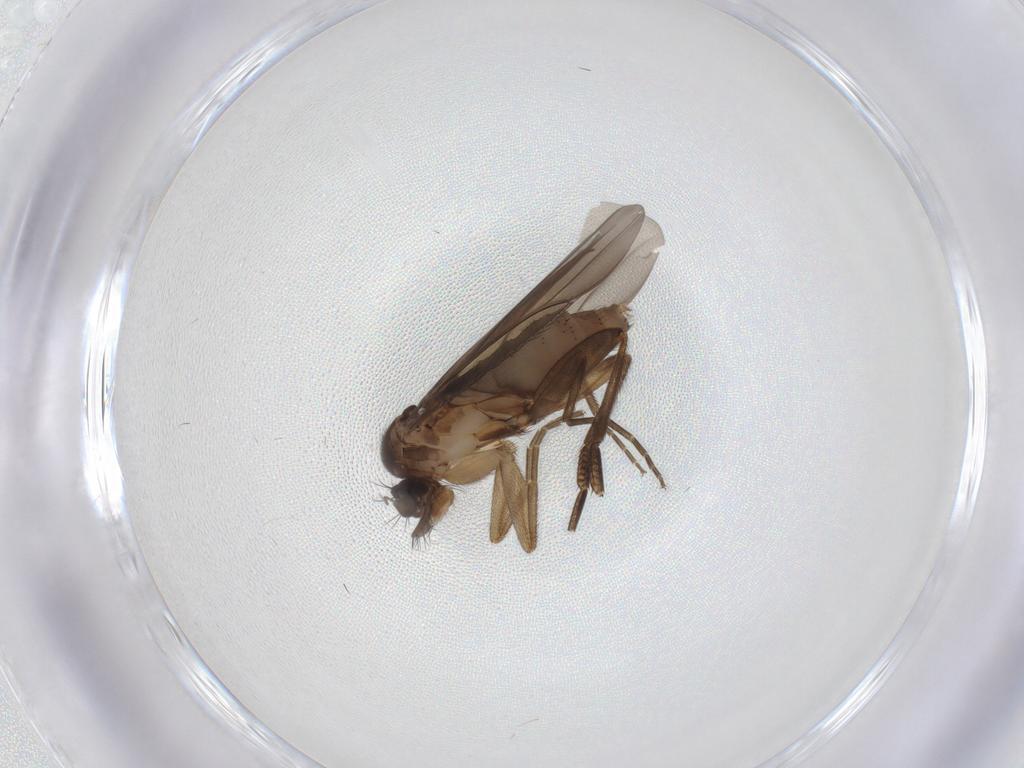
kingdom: Animalia
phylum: Arthropoda
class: Insecta
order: Diptera
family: Phoridae
